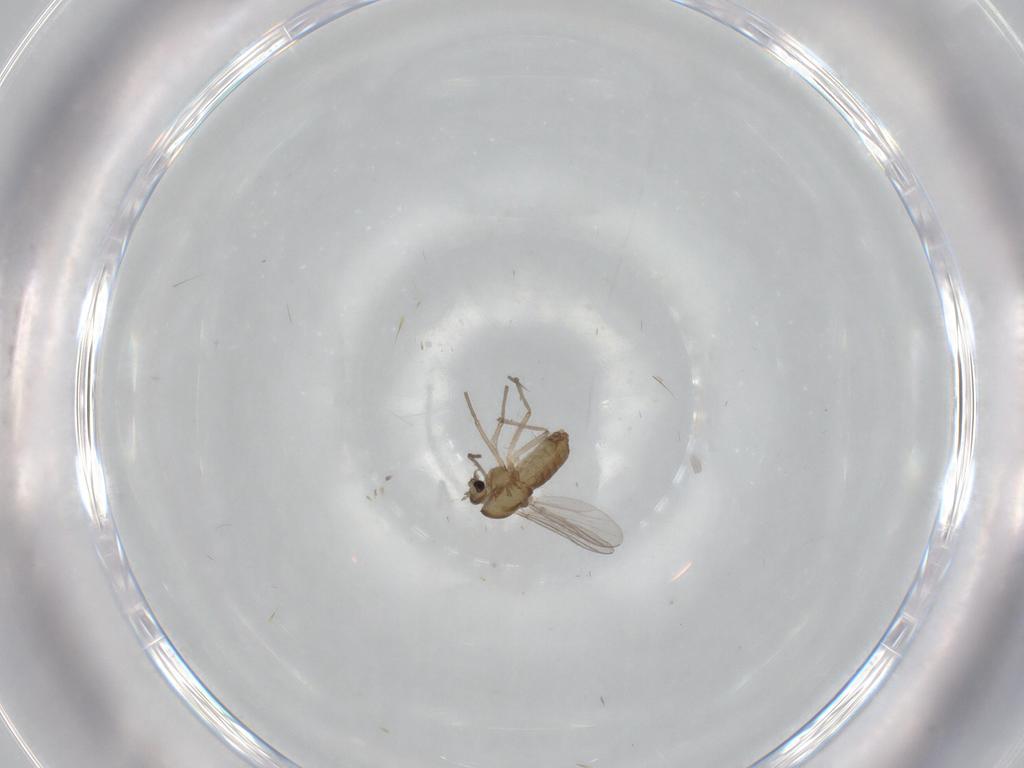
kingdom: Animalia
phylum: Arthropoda
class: Insecta
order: Diptera
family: Chironomidae
